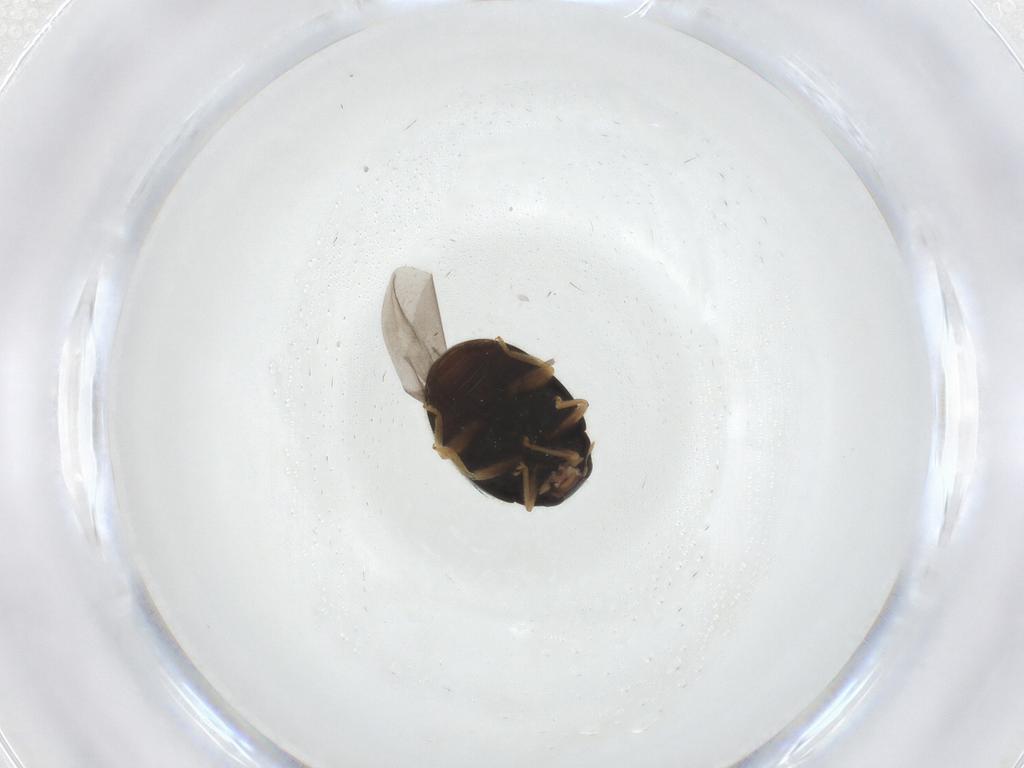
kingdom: Animalia
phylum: Arthropoda
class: Insecta
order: Coleoptera
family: Coccinellidae
